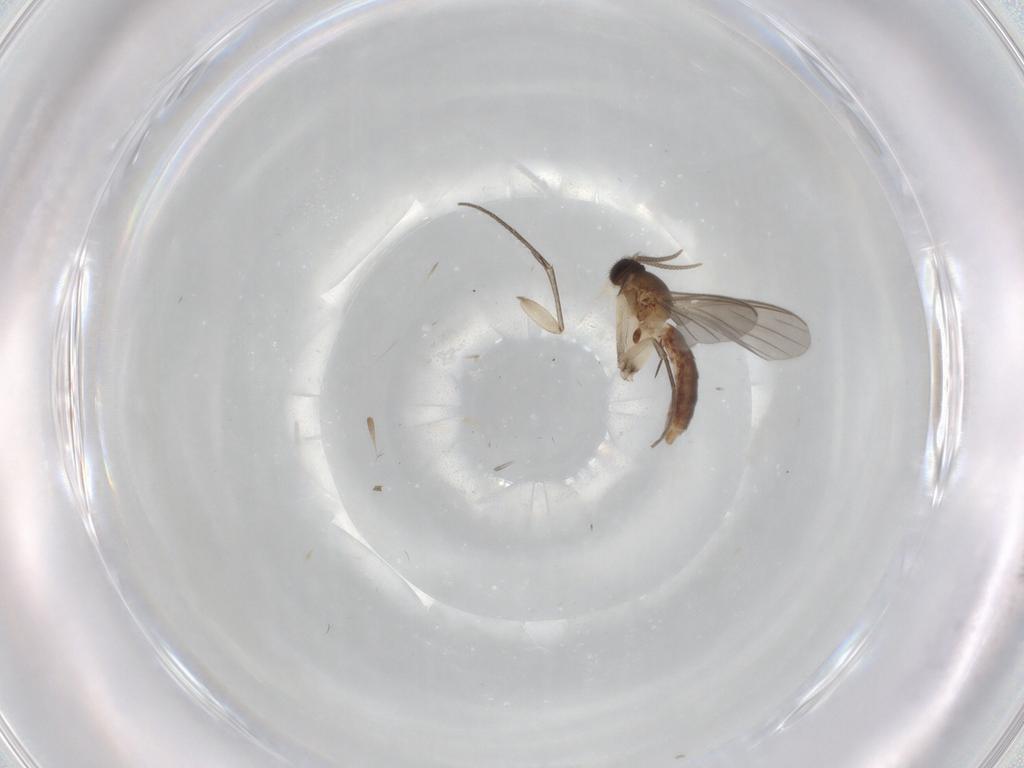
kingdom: Animalia
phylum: Arthropoda
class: Insecta
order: Diptera
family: Mycetophilidae
